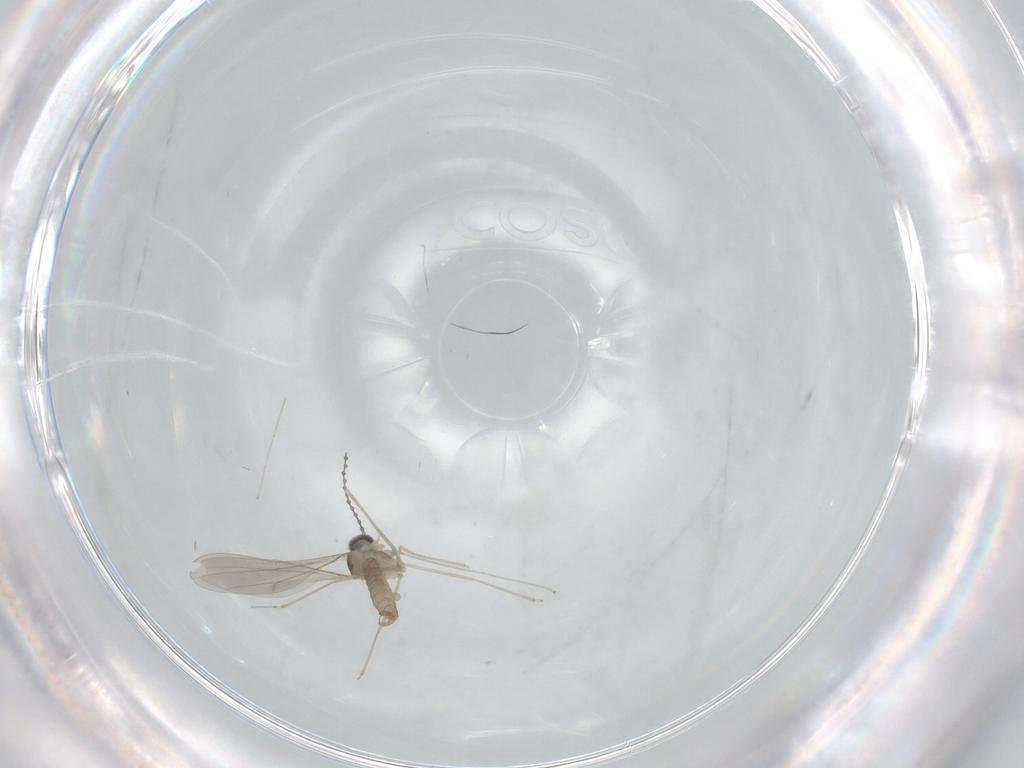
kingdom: Animalia
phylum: Arthropoda
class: Insecta
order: Diptera
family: Cecidomyiidae
